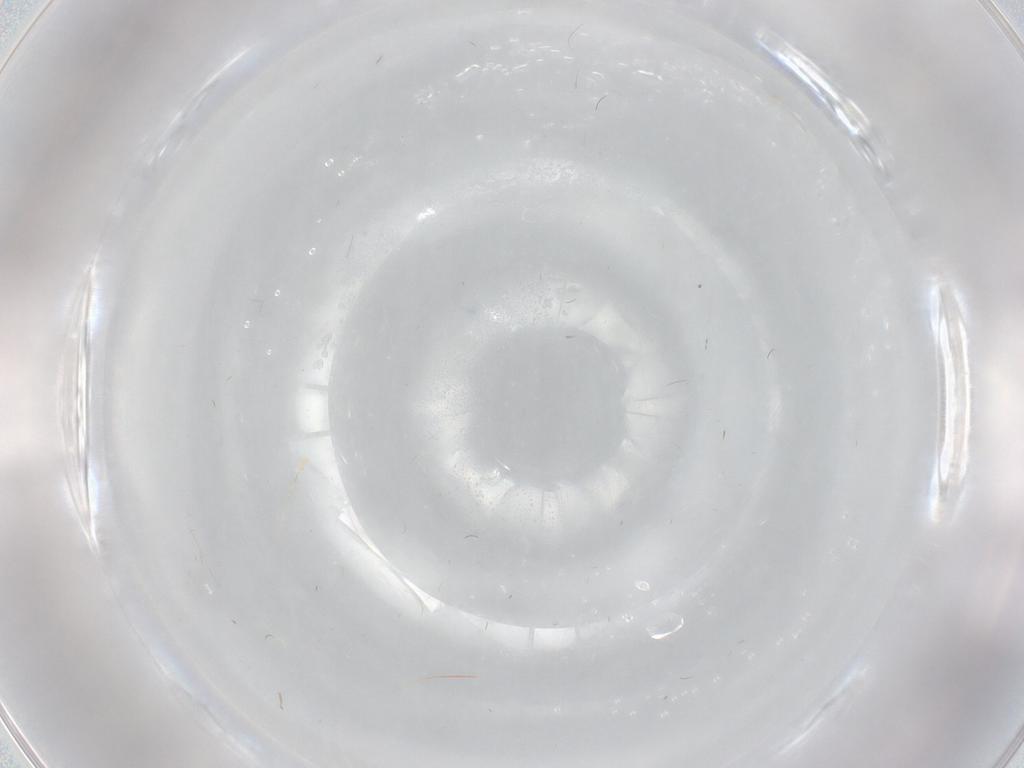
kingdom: Animalia
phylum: Arthropoda
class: Insecta
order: Diptera
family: Cecidomyiidae
